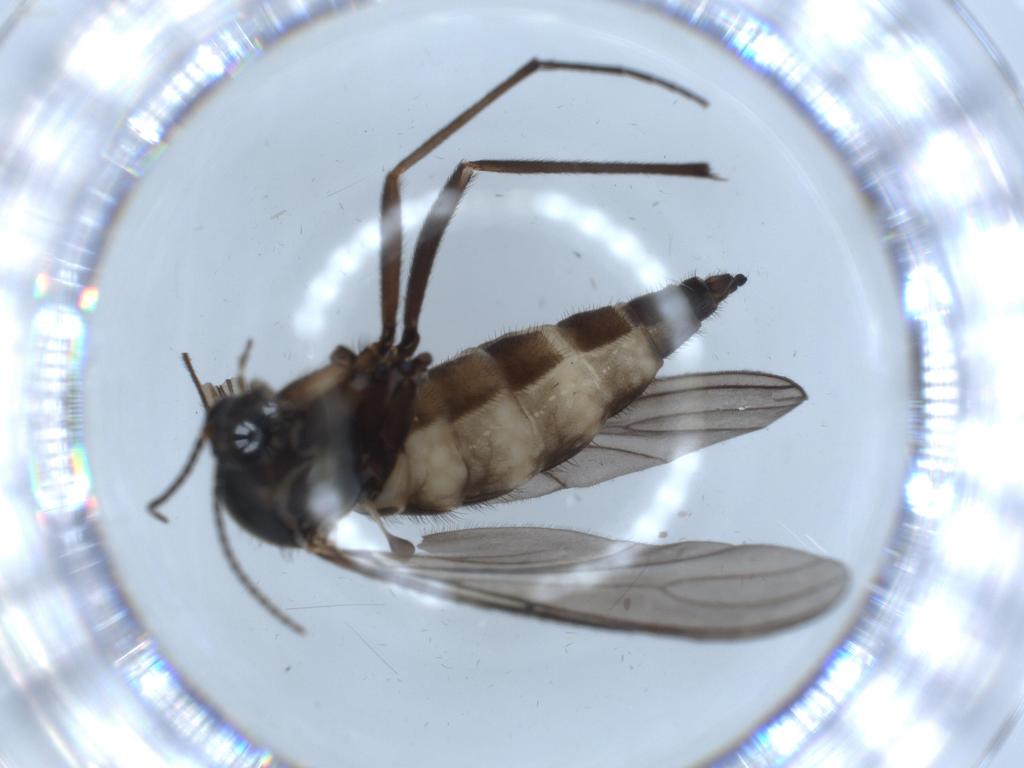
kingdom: Animalia
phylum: Arthropoda
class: Insecta
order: Diptera
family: Sciaridae
